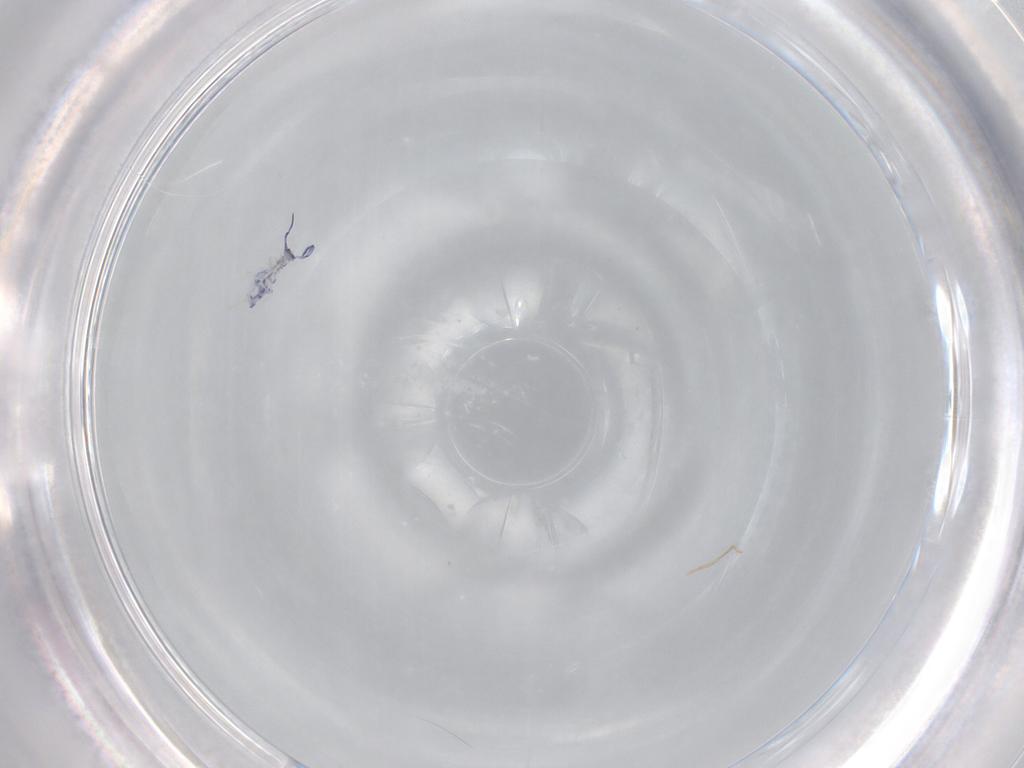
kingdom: Animalia
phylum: Arthropoda
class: Collembola
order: Entomobryomorpha
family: Entomobryidae
